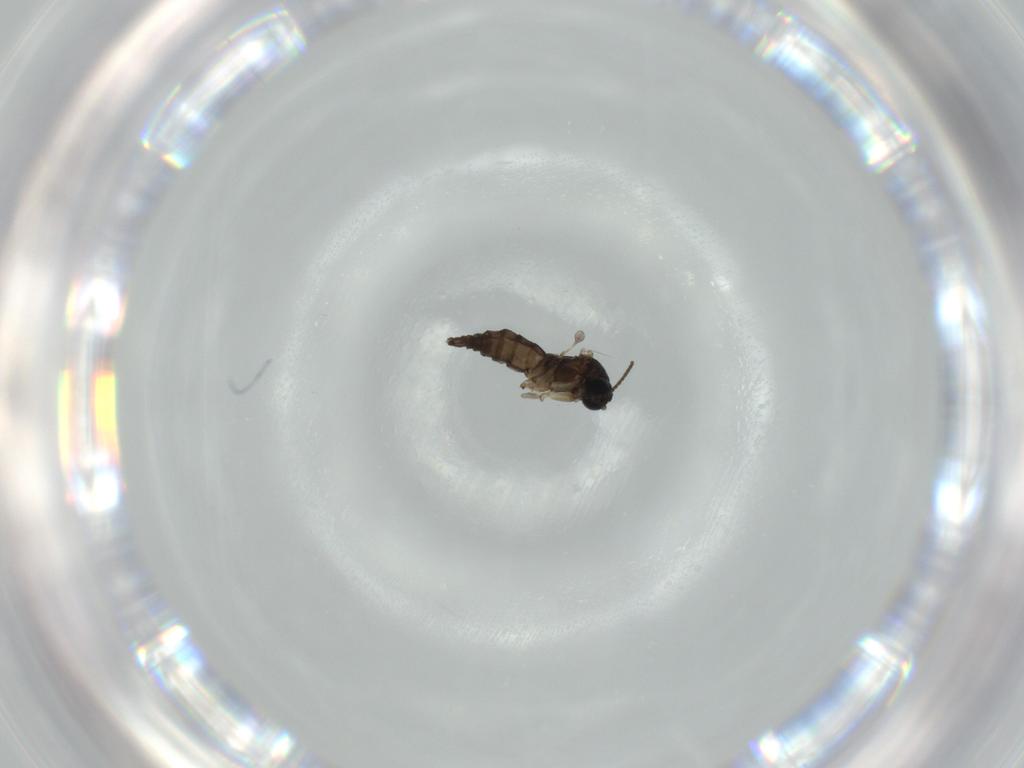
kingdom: Animalia
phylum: Arthropoda
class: Insecta
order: Diptera
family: Sciaridae
